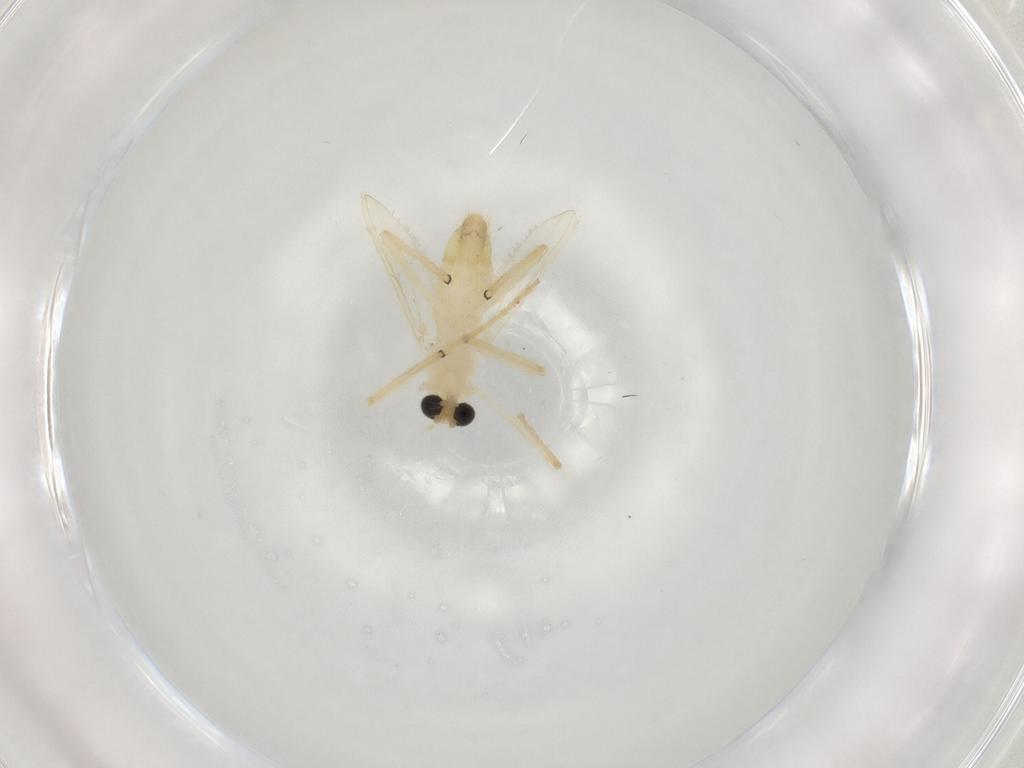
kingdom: Animalia
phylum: Arthropoda
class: Insecta
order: Diptera
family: Chironomidae
